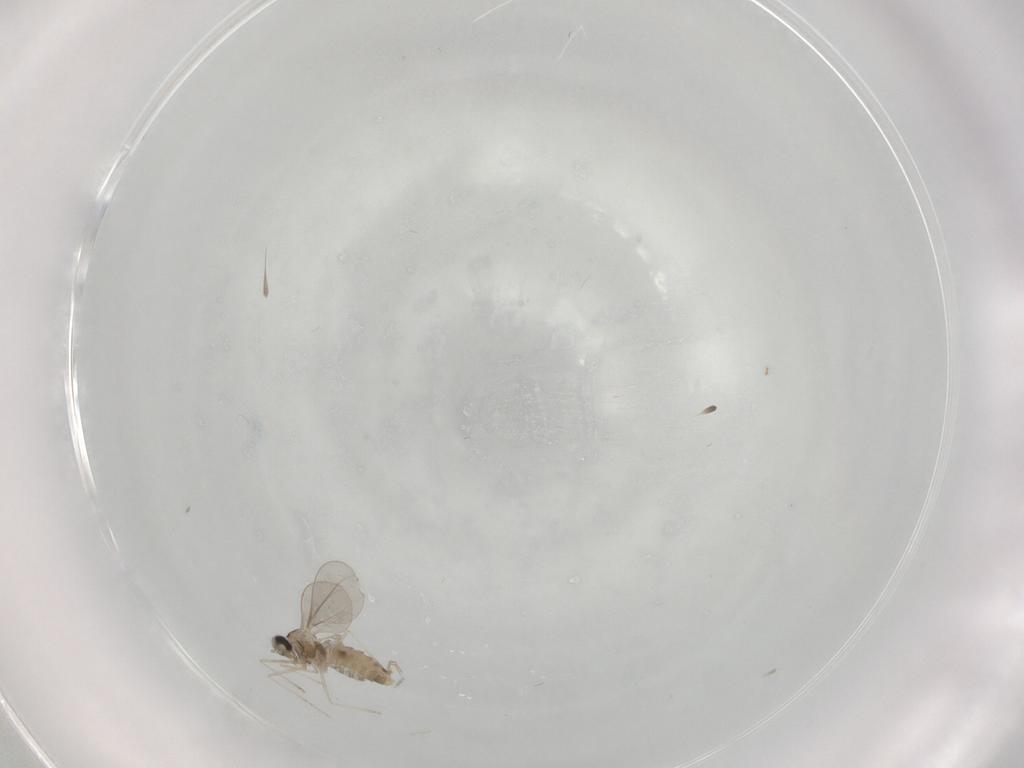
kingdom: Animalia
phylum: Arthropoda
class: Insecta
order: Diptera
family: Cecidomyiidae
